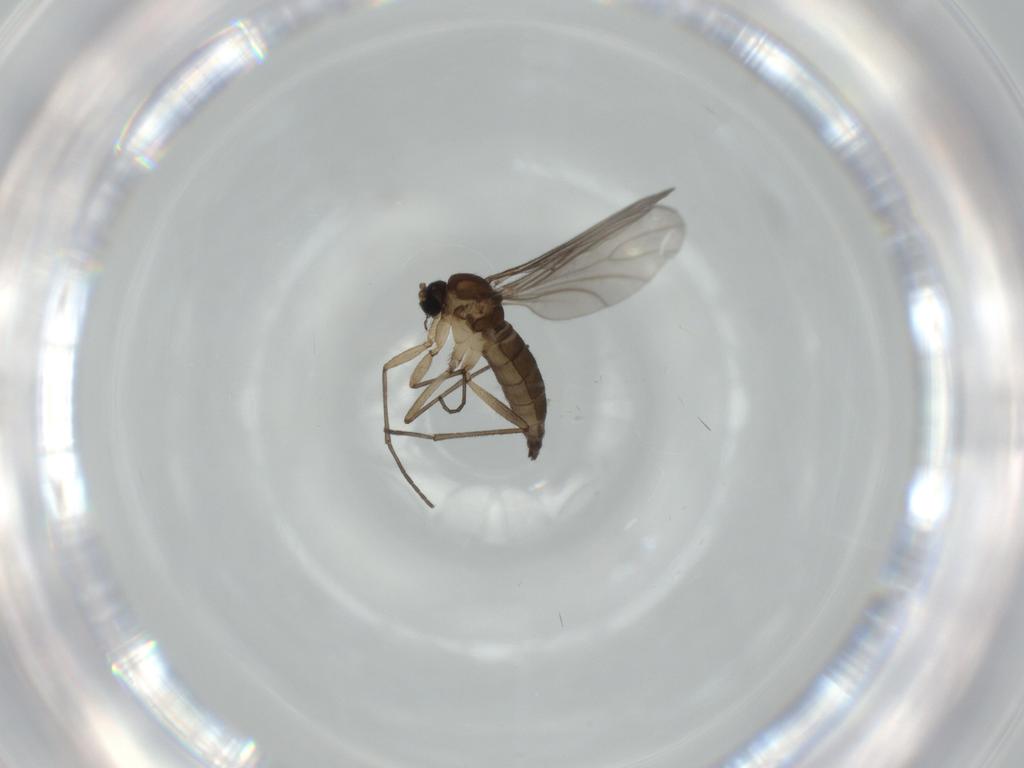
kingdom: Animalia
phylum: Arthropoda
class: Insecta
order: Diptera
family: Sciaridae
